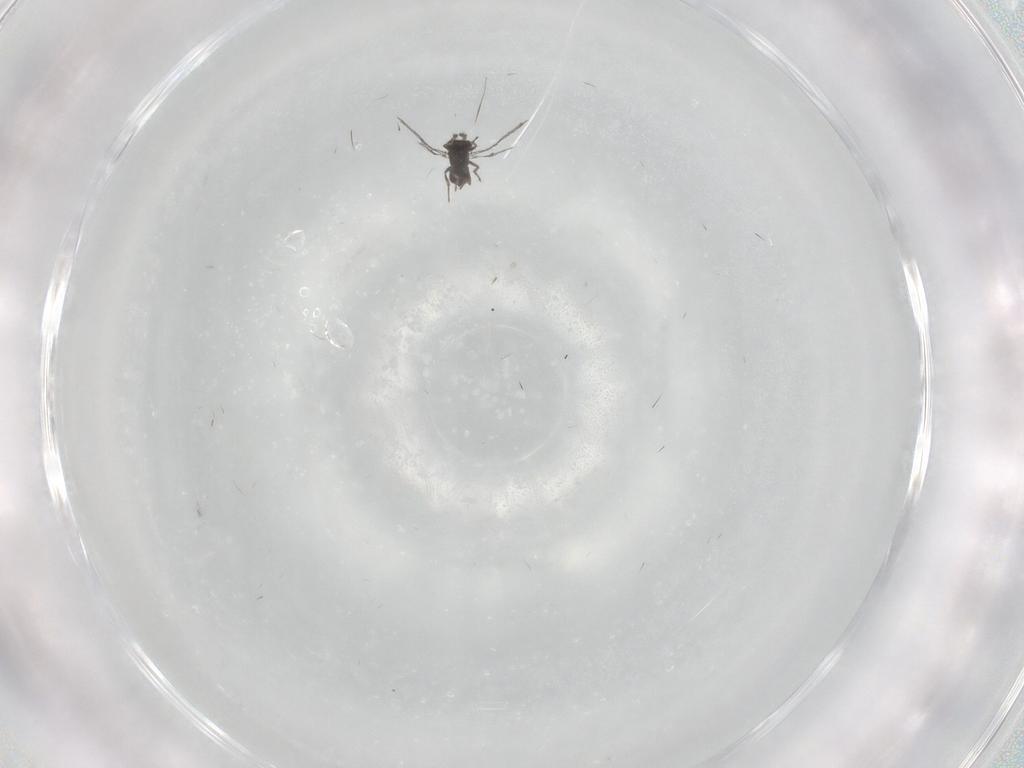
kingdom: Animalia
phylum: Arthropoda
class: Insecta
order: Hymenoptera
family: Trichogrammatidae
